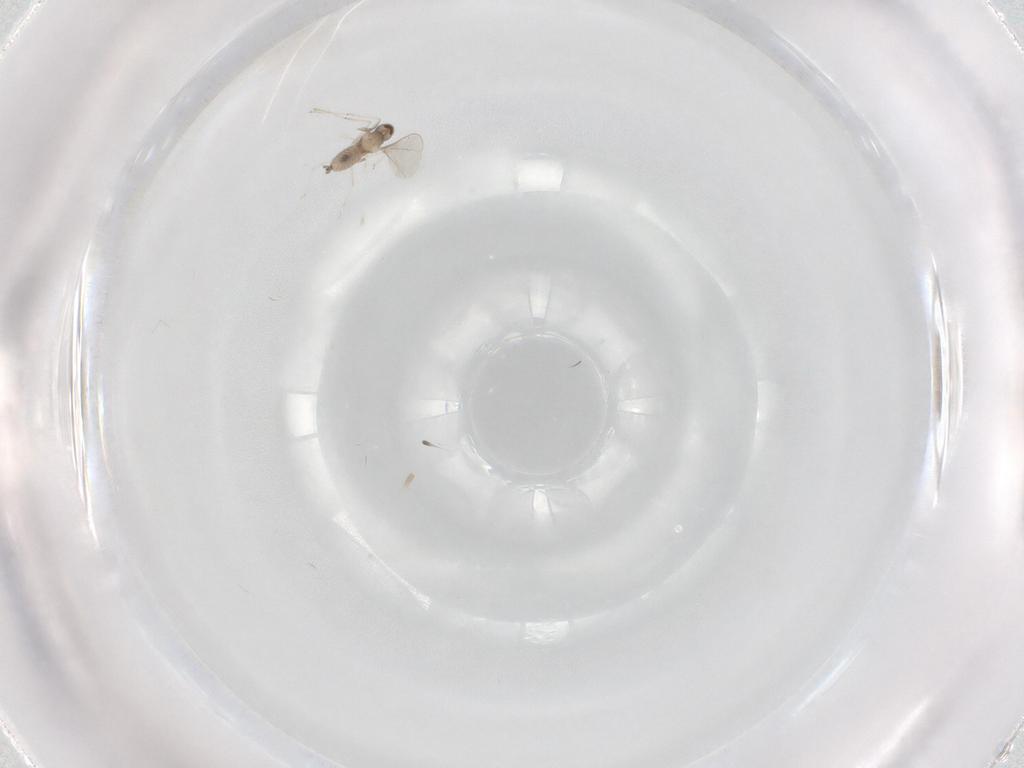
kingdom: Animalia
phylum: Arthropoda
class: Insecta
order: Diptera
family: Cecidomyiidae
